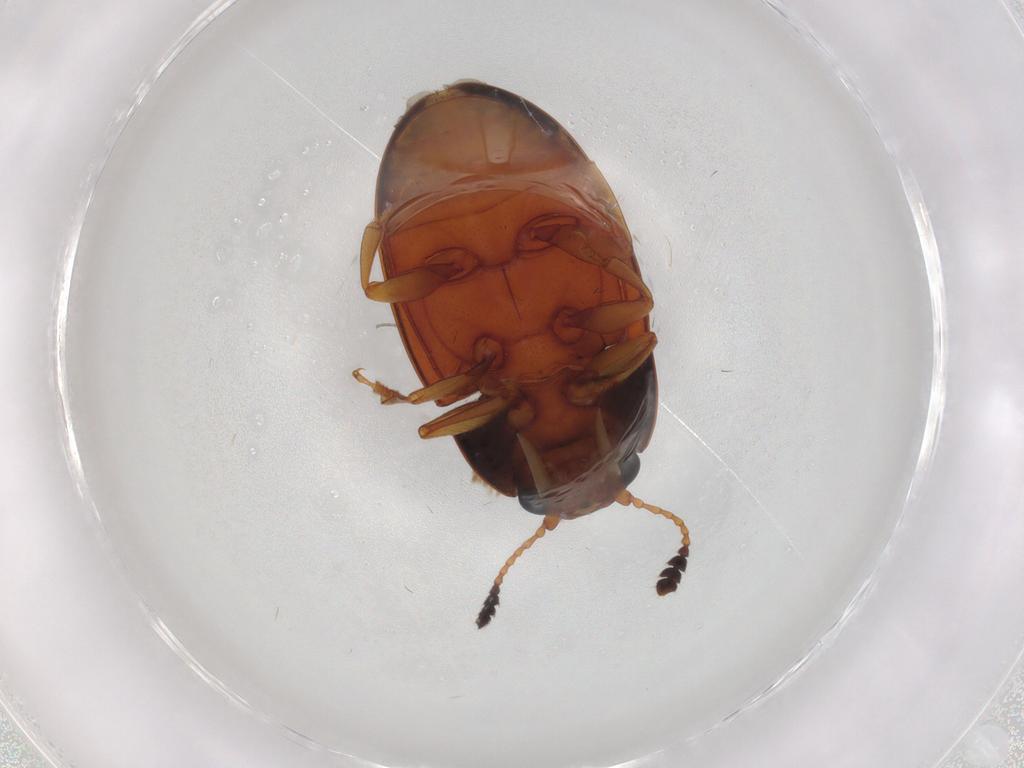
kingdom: Animalia
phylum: Arthropoda
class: Insecta
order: Coleoptera
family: Erotylidae
